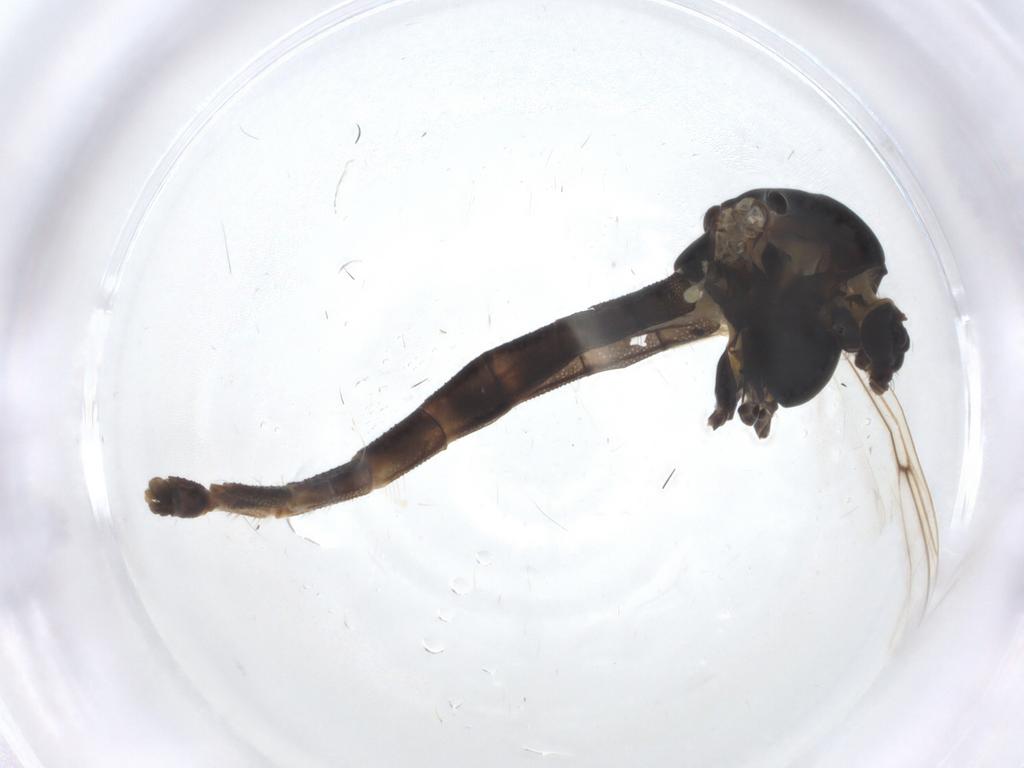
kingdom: Animalia
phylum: Arthropoda
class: Insecta
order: Diptera
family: Chironomidae
